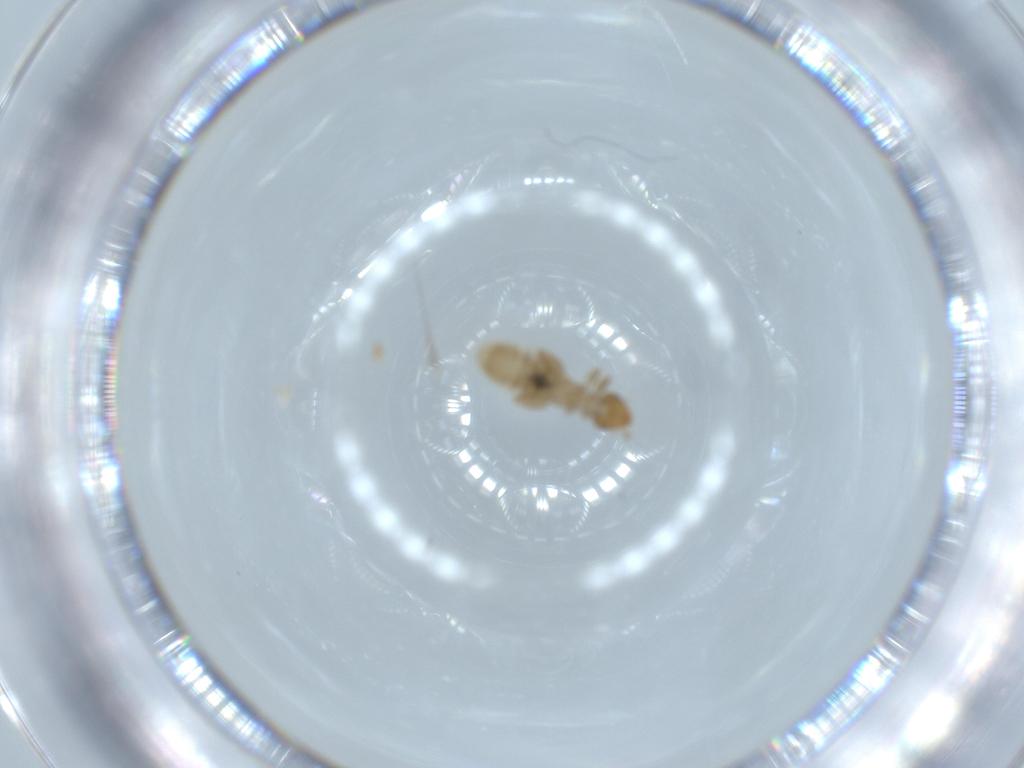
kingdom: Animalia
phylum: Arthropoda
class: Insecta
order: Psocodea
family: Liposcelididae
